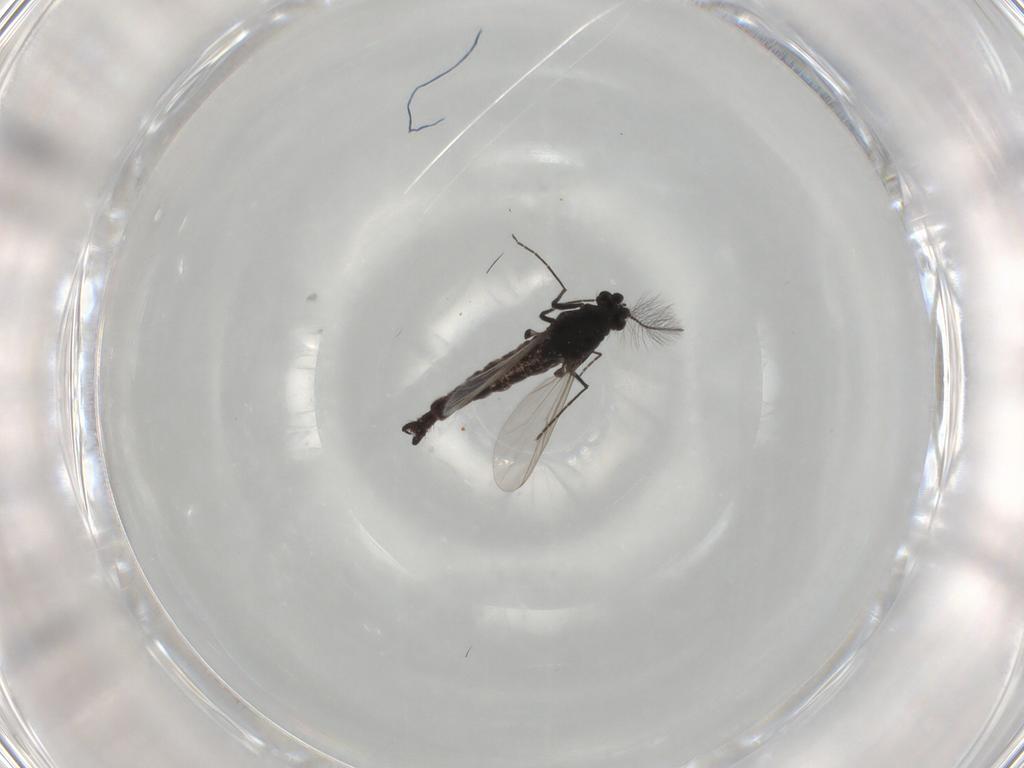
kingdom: Animalia
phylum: Arthropoda
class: Insecta
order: Diptera
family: Chironomidae
